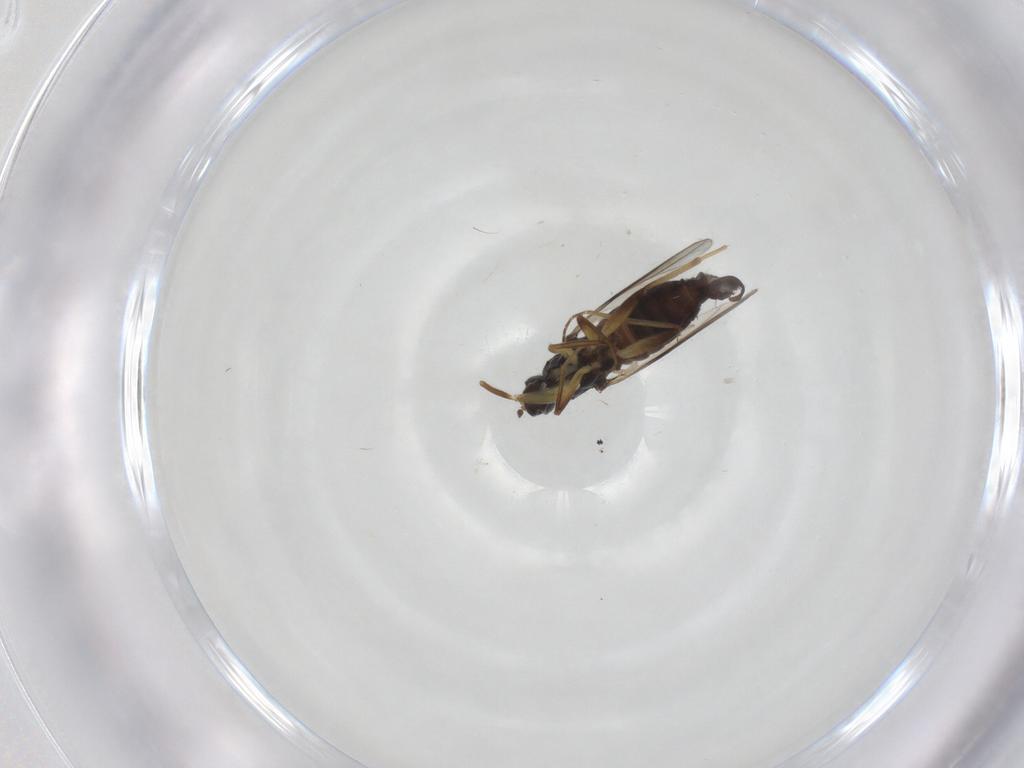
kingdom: Animalia
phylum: Arthropoda
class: Insecta
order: Diptera
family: Hybotidae
